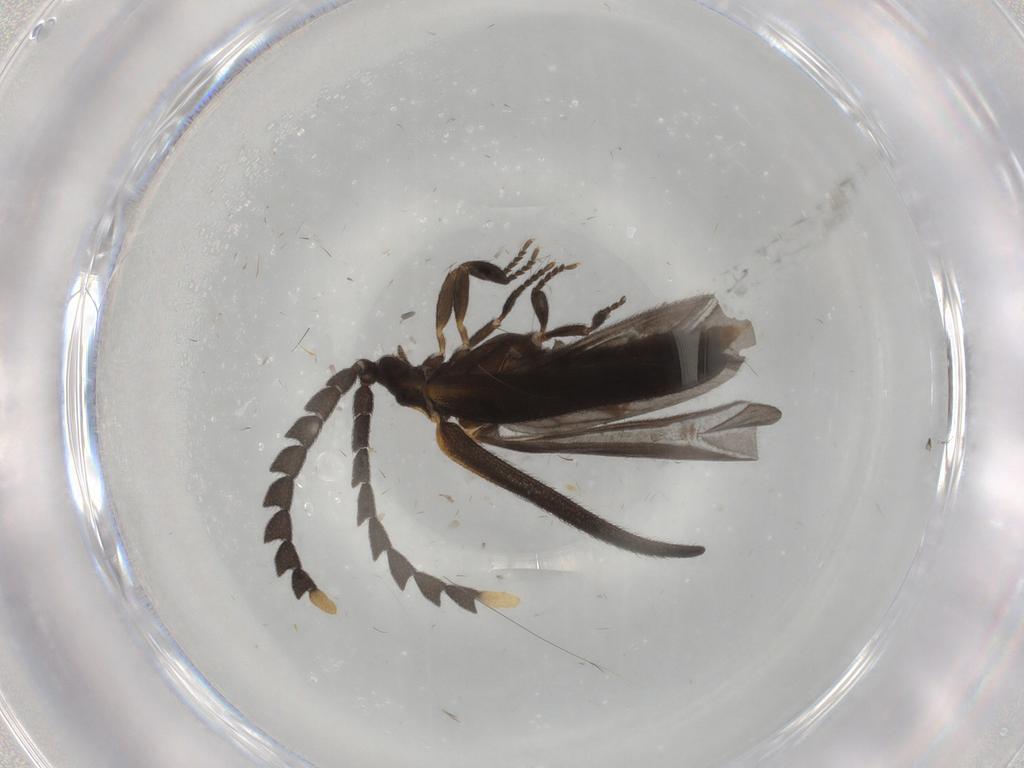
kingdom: Animalia
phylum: Arthropoda
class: Insecta
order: Coleoptera
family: Lycidae
